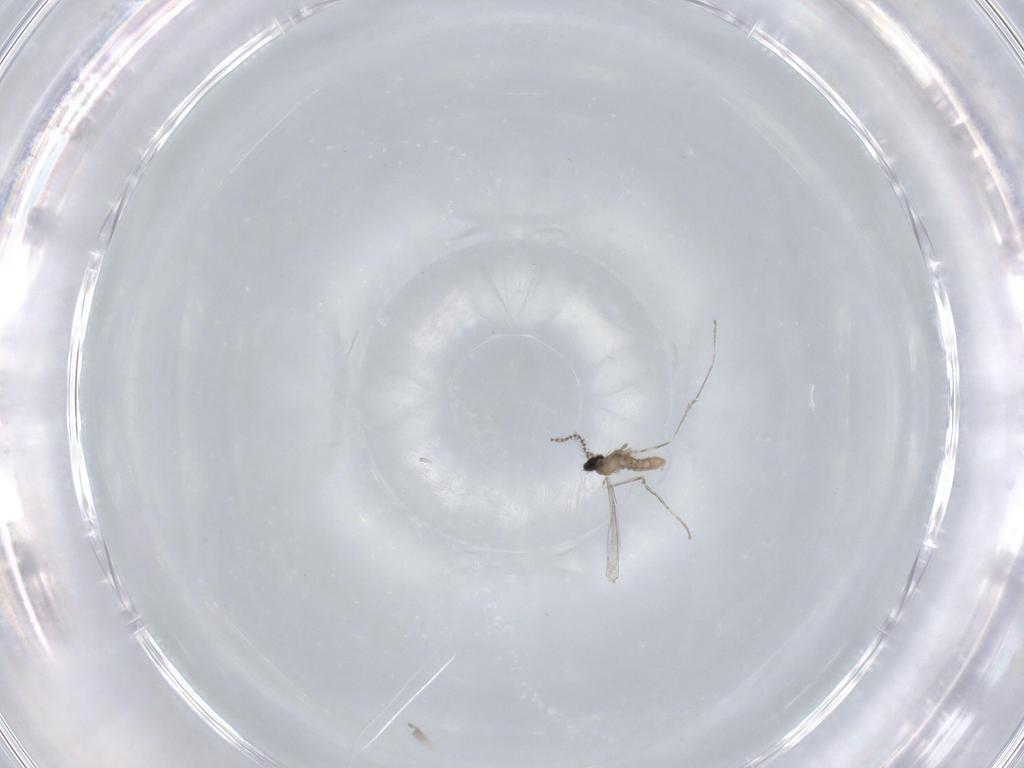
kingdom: Animalia
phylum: Arthropoda
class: Insecta
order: Diptera
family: Cecidomyiidae
